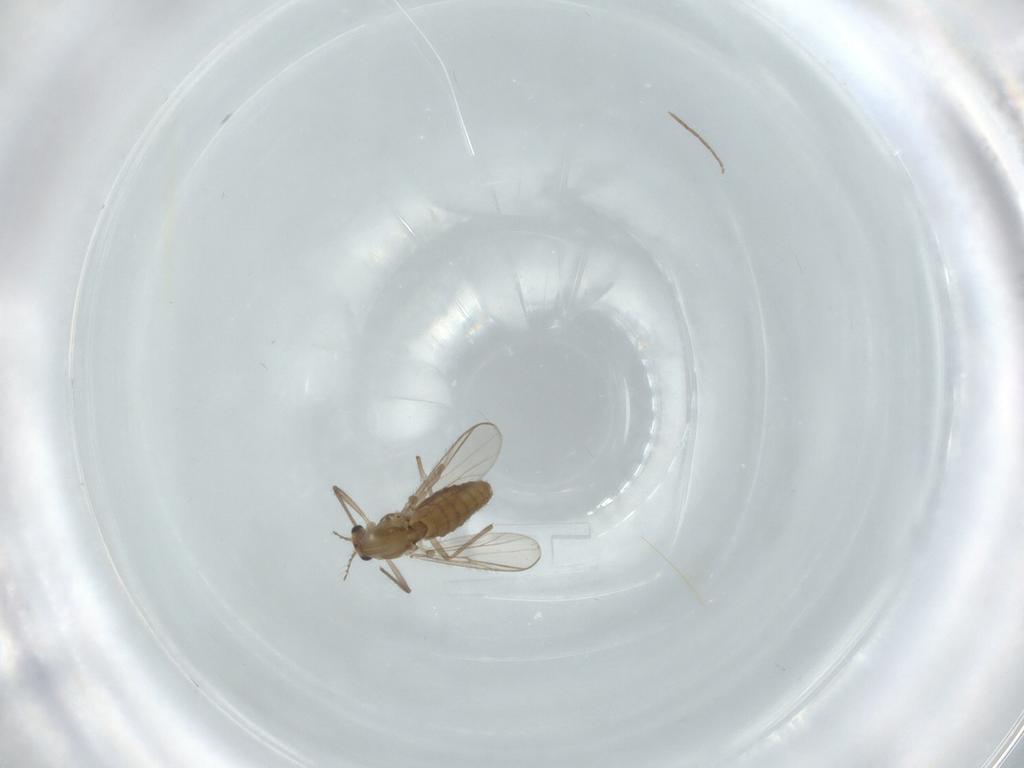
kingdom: Animalia
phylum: Arthropoda
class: Insecta
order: Diptera
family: Chironomidae
